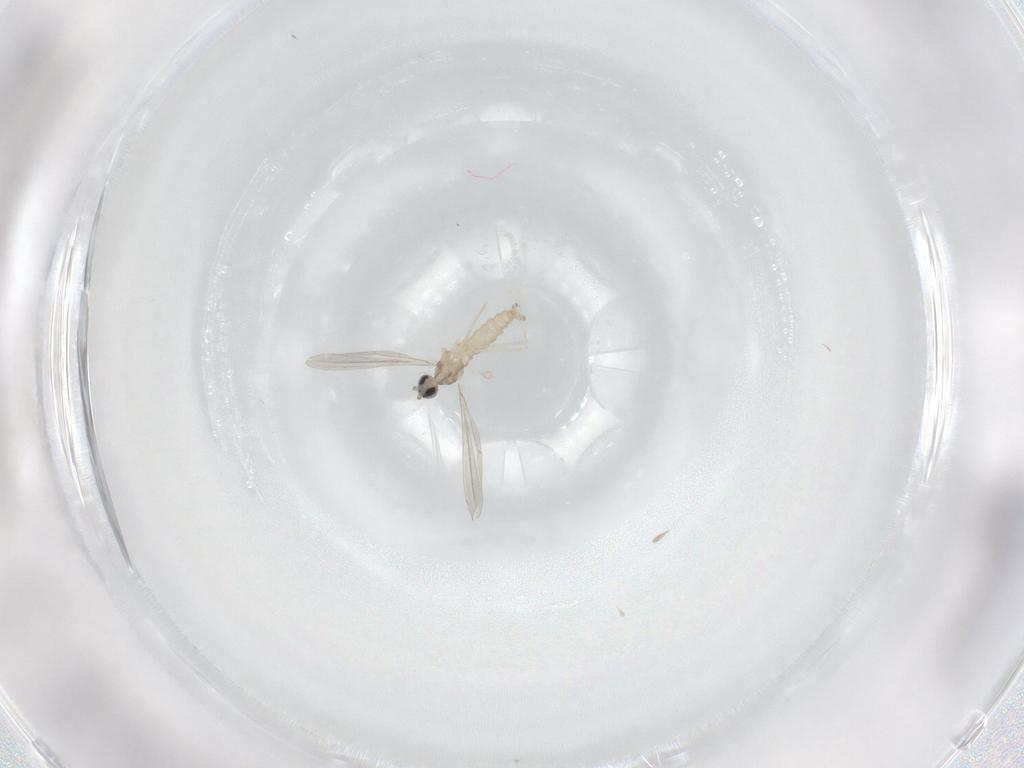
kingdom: Animalia
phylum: Arthropoda
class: Insecta
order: Diptera
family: Cecidomyiidae
